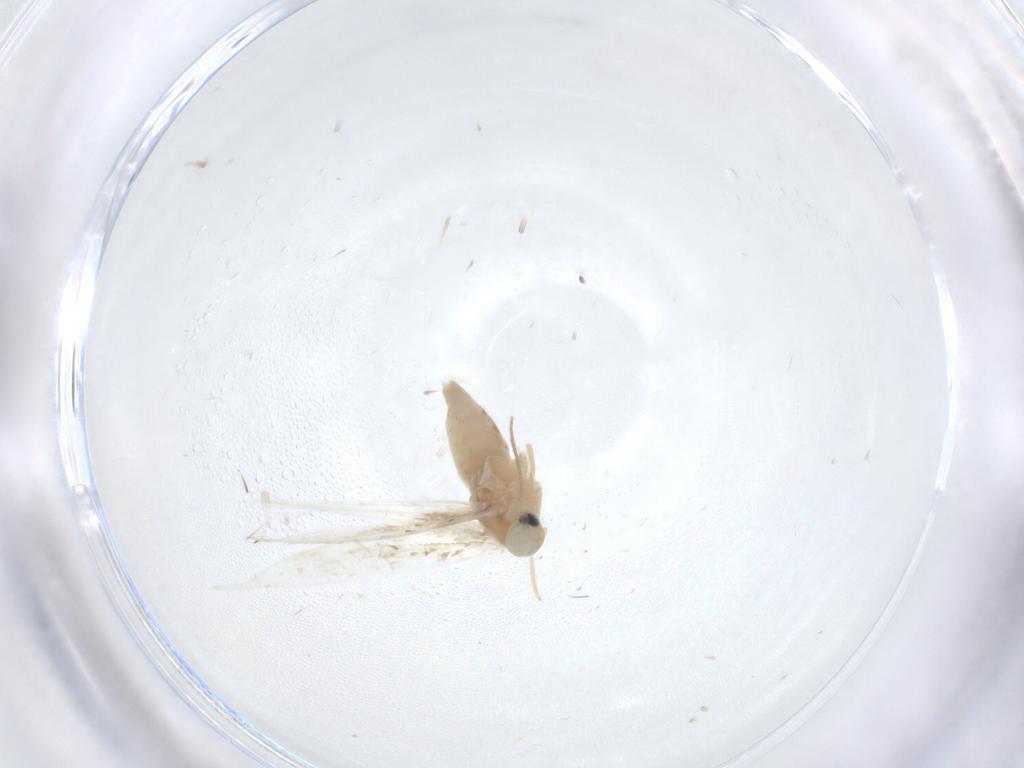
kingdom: Animalia
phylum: Arthropoda
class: Insecta
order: Lepidoptera
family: Gracillariidae
